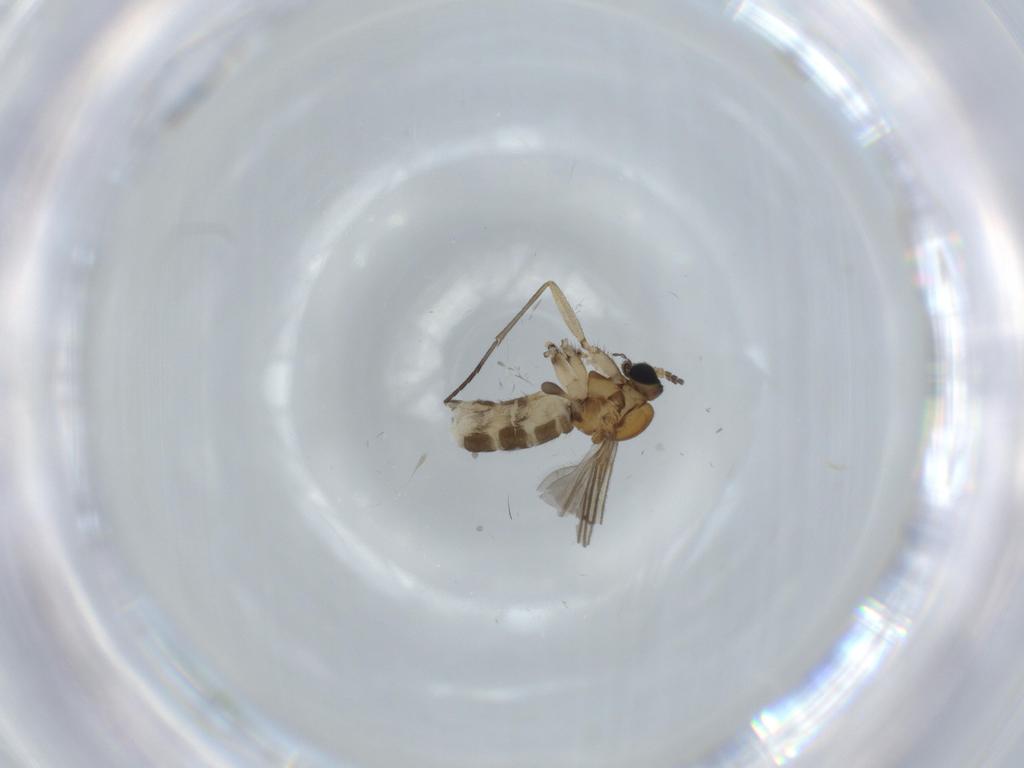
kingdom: Animalia
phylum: Arthropoda
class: Insecta
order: Diptera
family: Sciaridae
